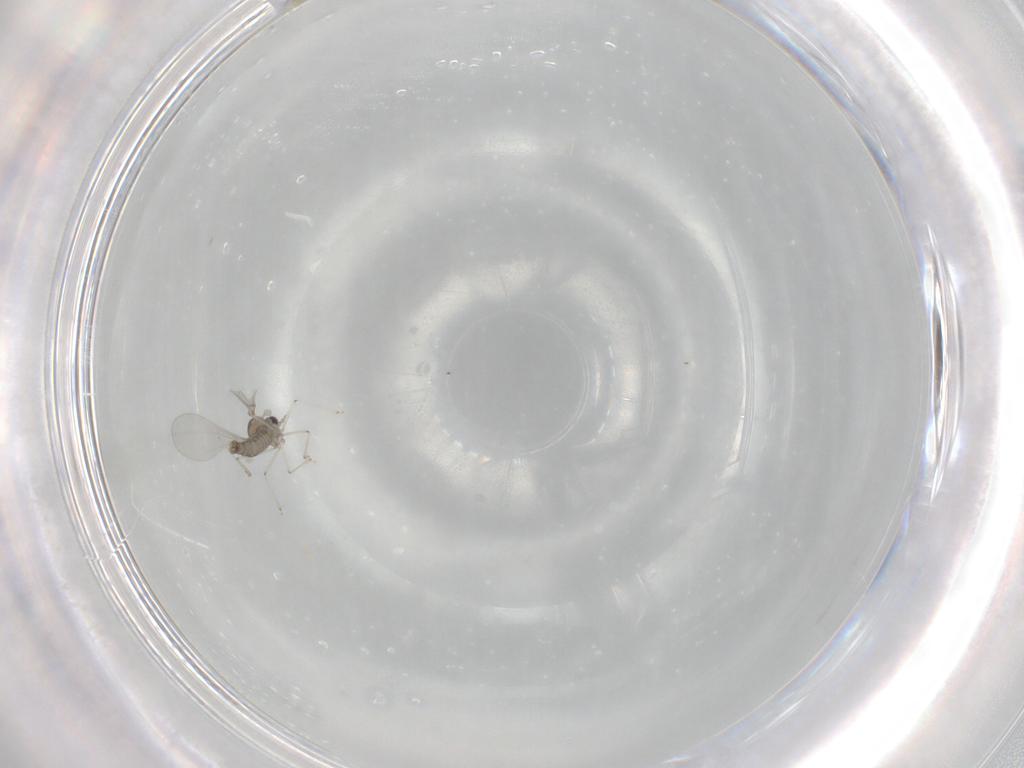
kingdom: Animalia
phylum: Arthropoda
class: Insecta
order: Diptera
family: Cecidomyiidae
